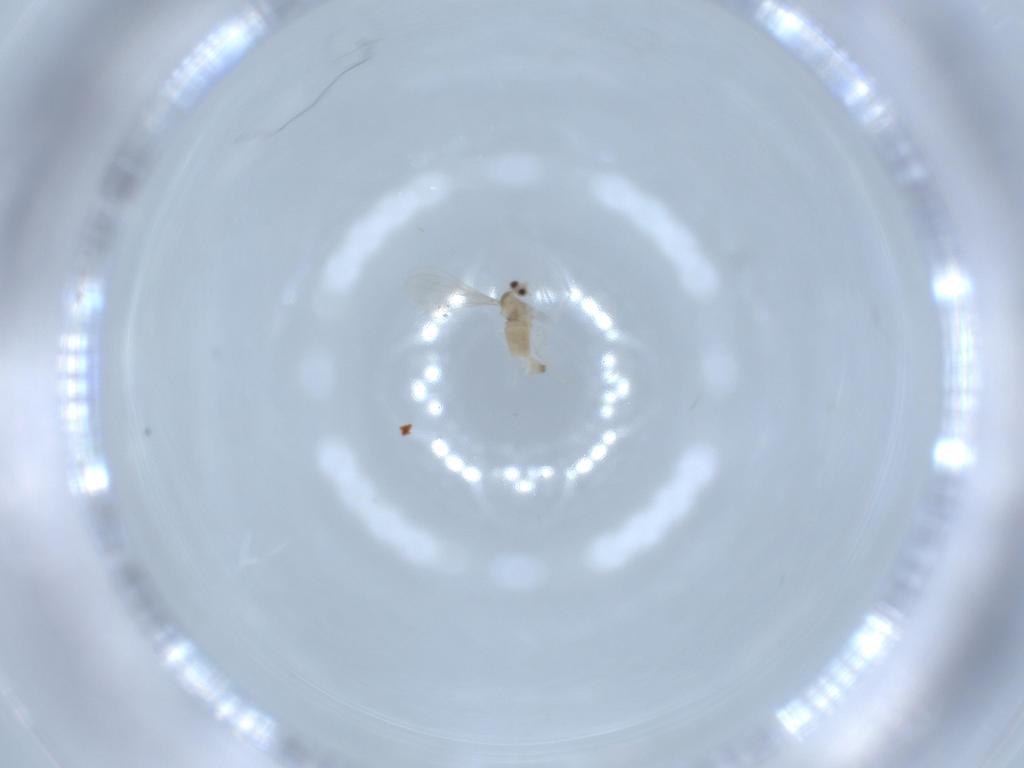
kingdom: Animalia
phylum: Arthropoda
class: Insecta
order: Diptera
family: Cecidomyiidae
